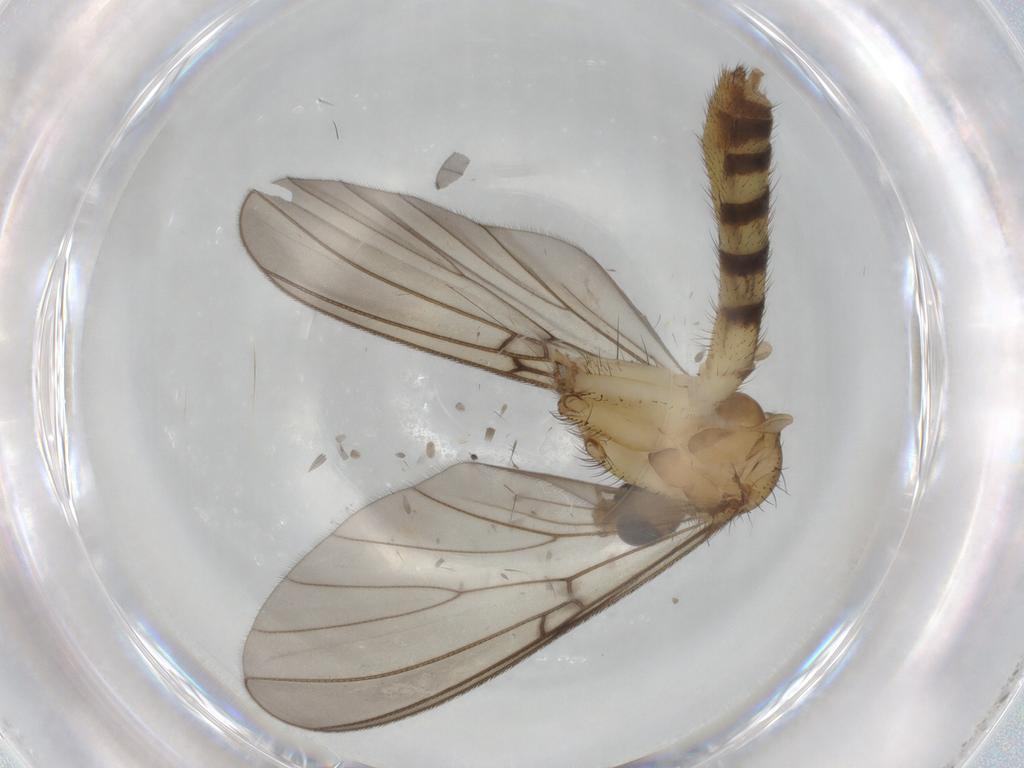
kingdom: Animalia
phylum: Arthropoda
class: Insecta
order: Diptera
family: Mycetophilidae
